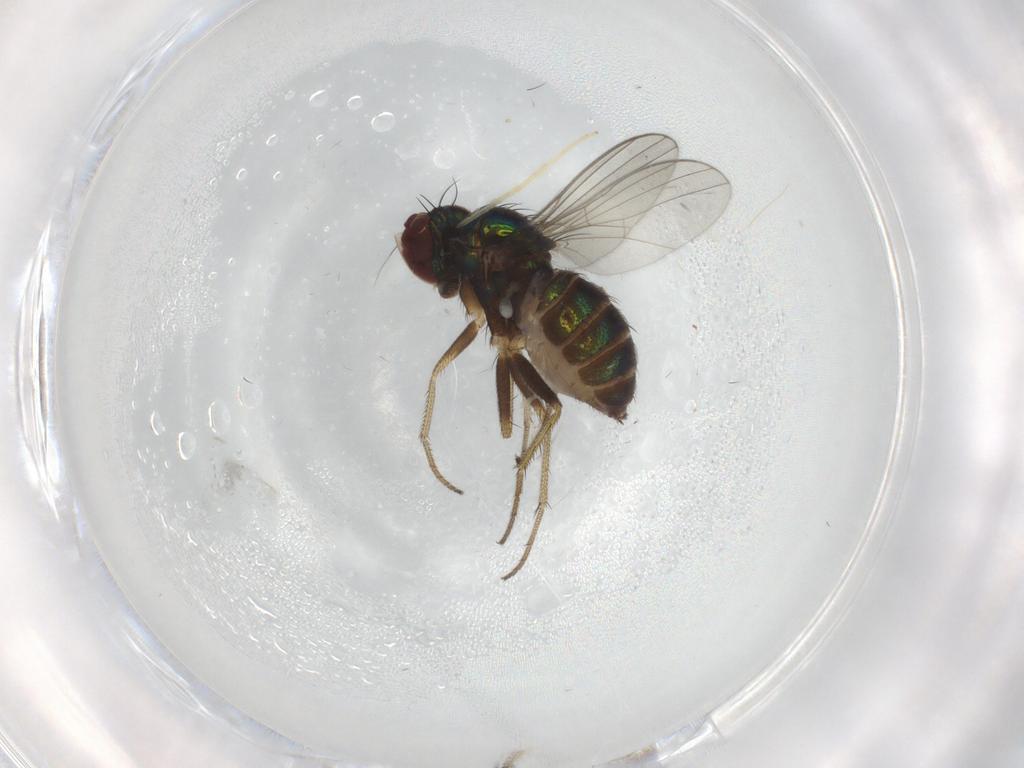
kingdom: Animalia
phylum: Arthropoda
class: Insecta
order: Diptera
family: Dolichopodidae
